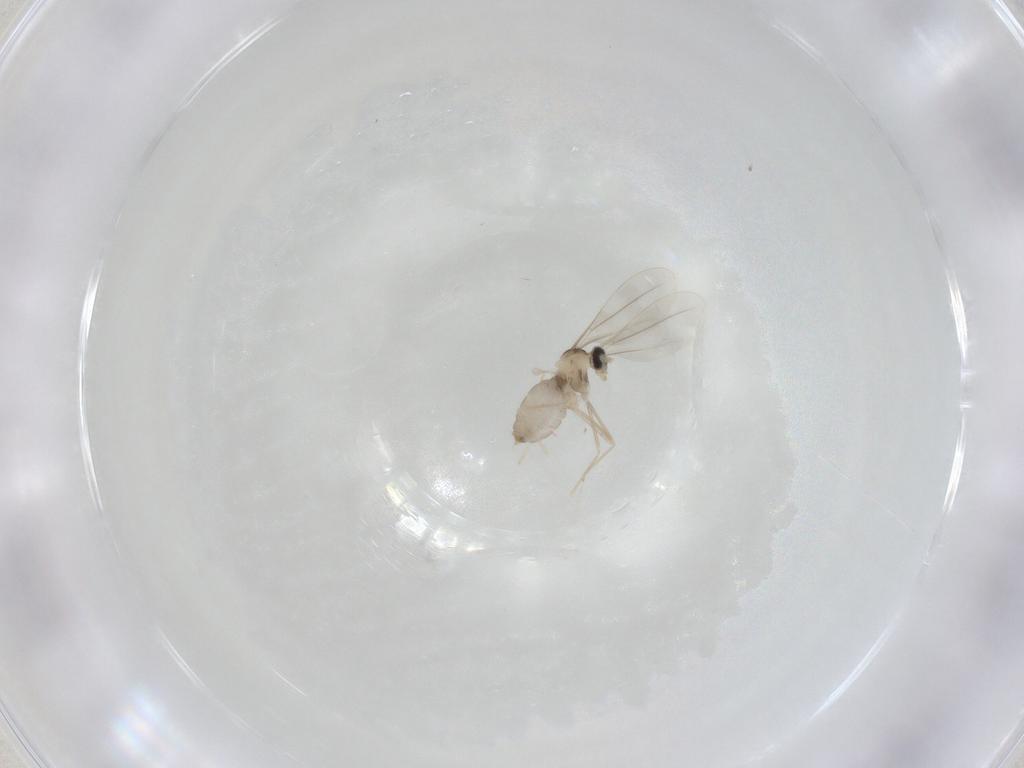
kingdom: Animalia
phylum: Arthropoda
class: Insecta
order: Diptera
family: Cecidomyiidae
